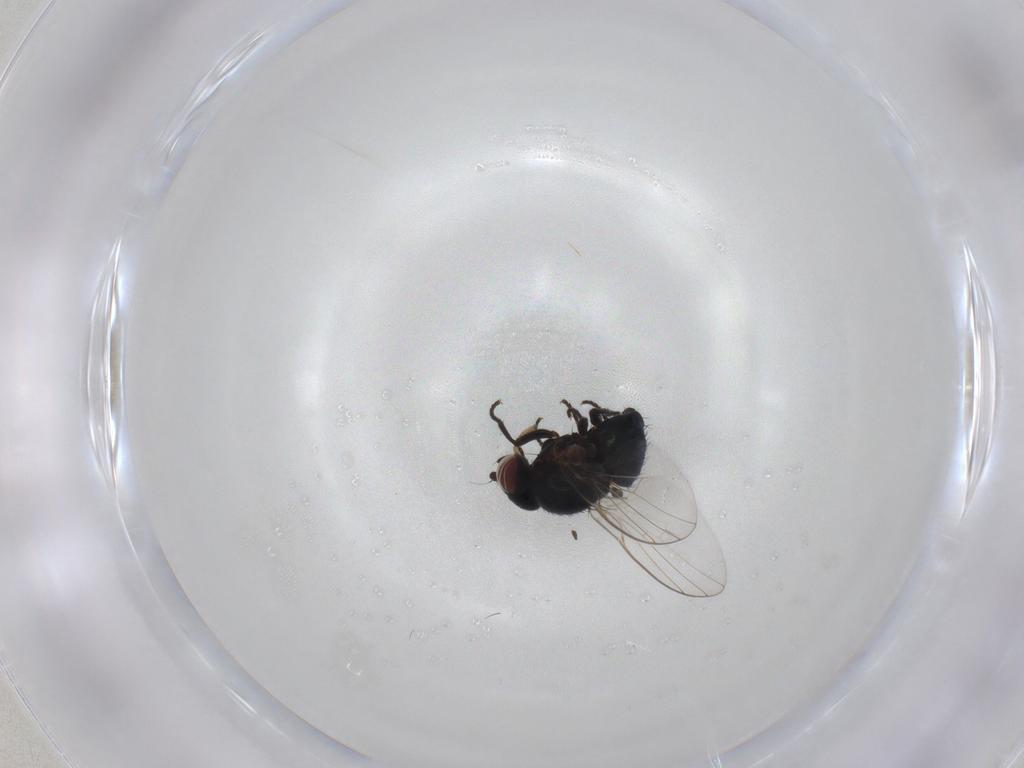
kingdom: Animalia
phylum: Arthropoda
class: Insecta
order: Diptera
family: Agromyzidae
